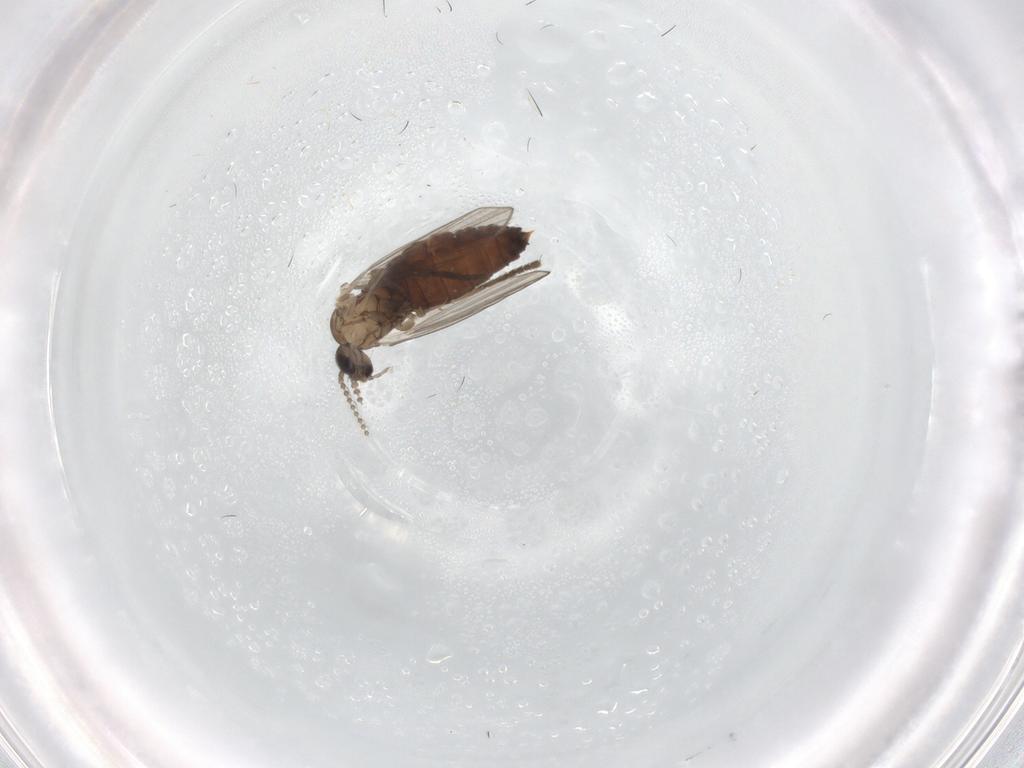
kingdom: Animalia
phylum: Arthropoda
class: Insecta
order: Diptera
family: Psychodidae
